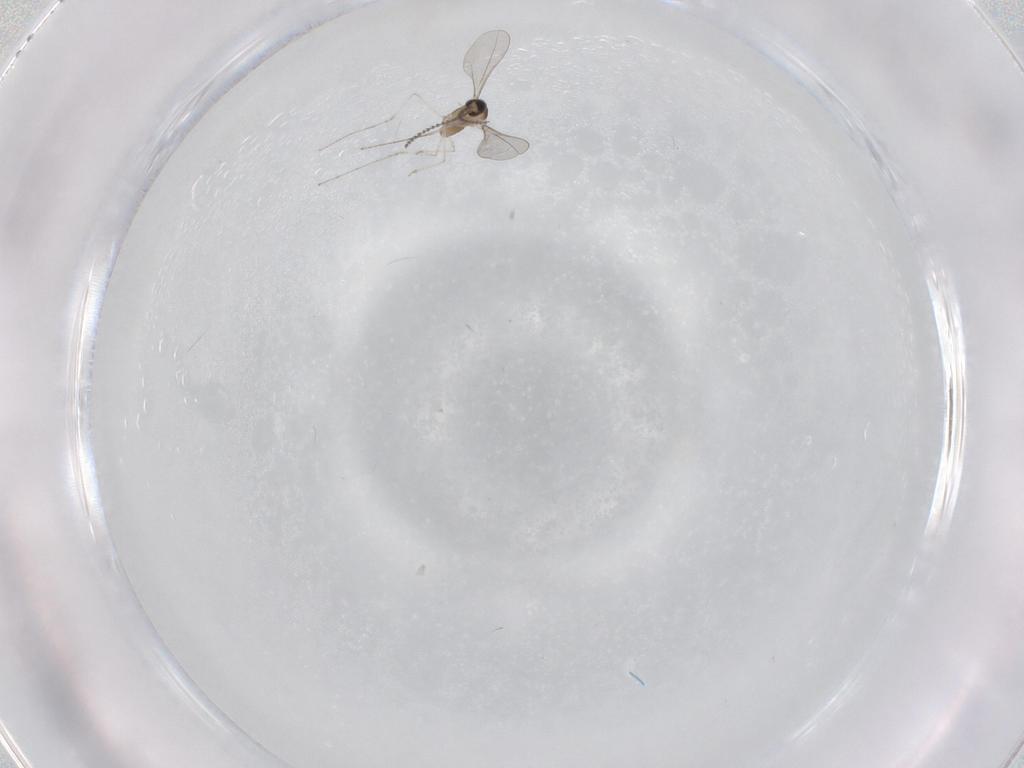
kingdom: Animalia
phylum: Arthropoda
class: Insecta
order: Diptera
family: Cecidomyiidae
